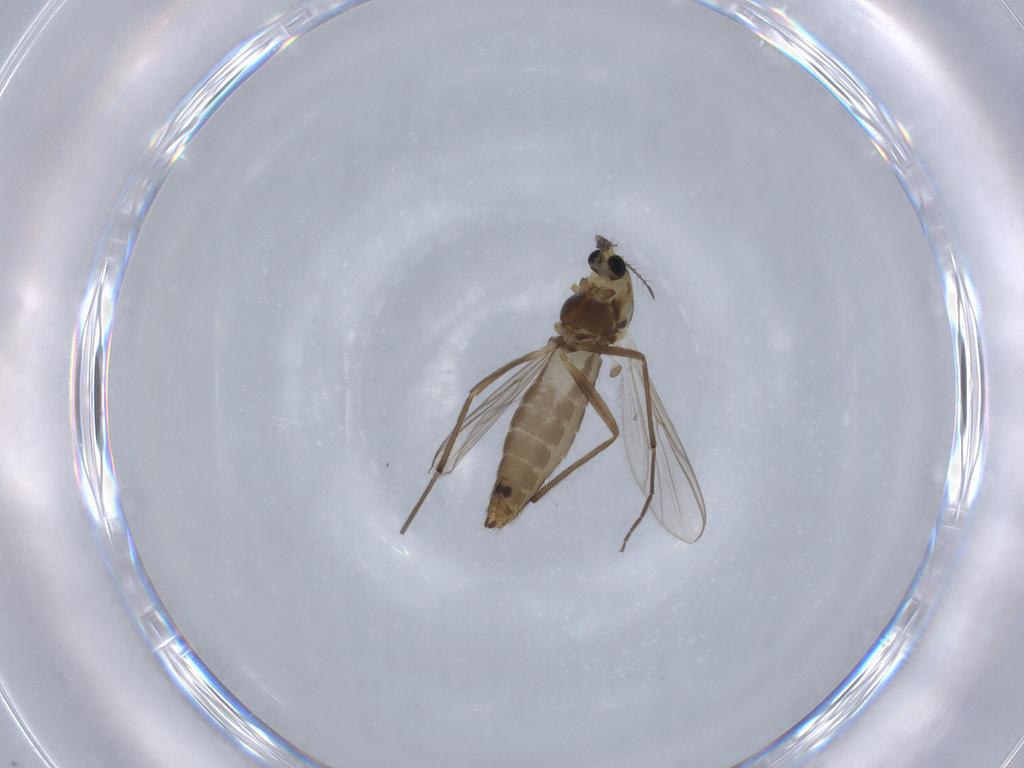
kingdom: Animalia
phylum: Arthropoda
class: Insecta
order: Diptera
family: Chironomidae
